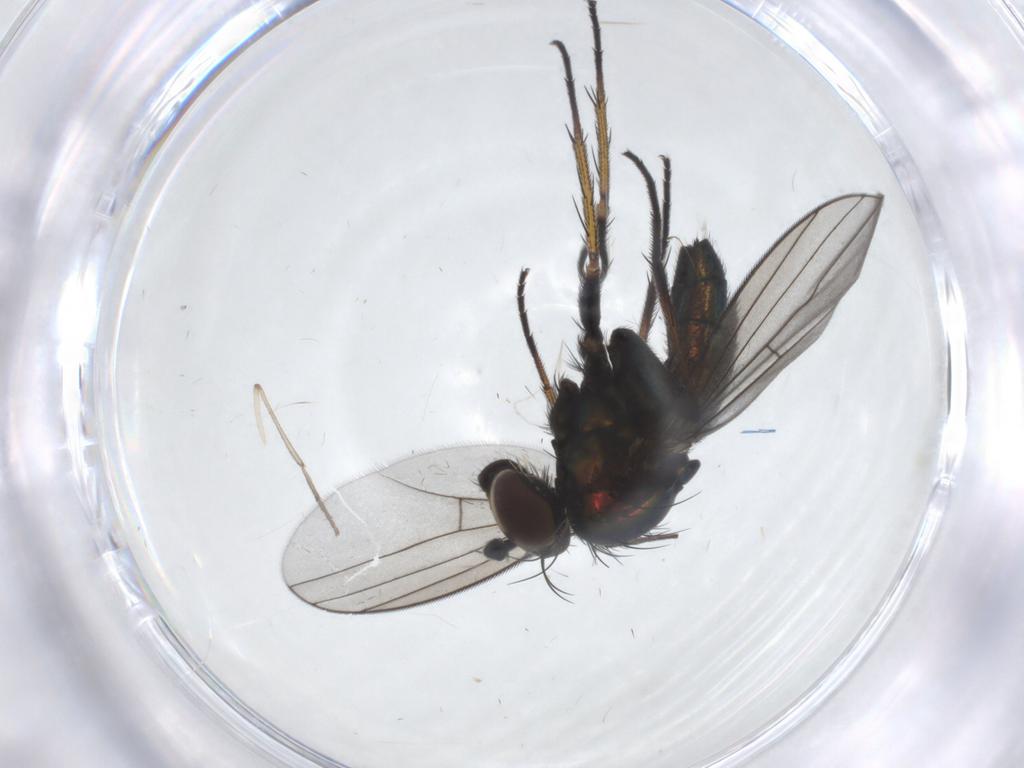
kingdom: Animalia
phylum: Arthropoda
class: Insecta
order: Diptera
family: Dolichopodidae
